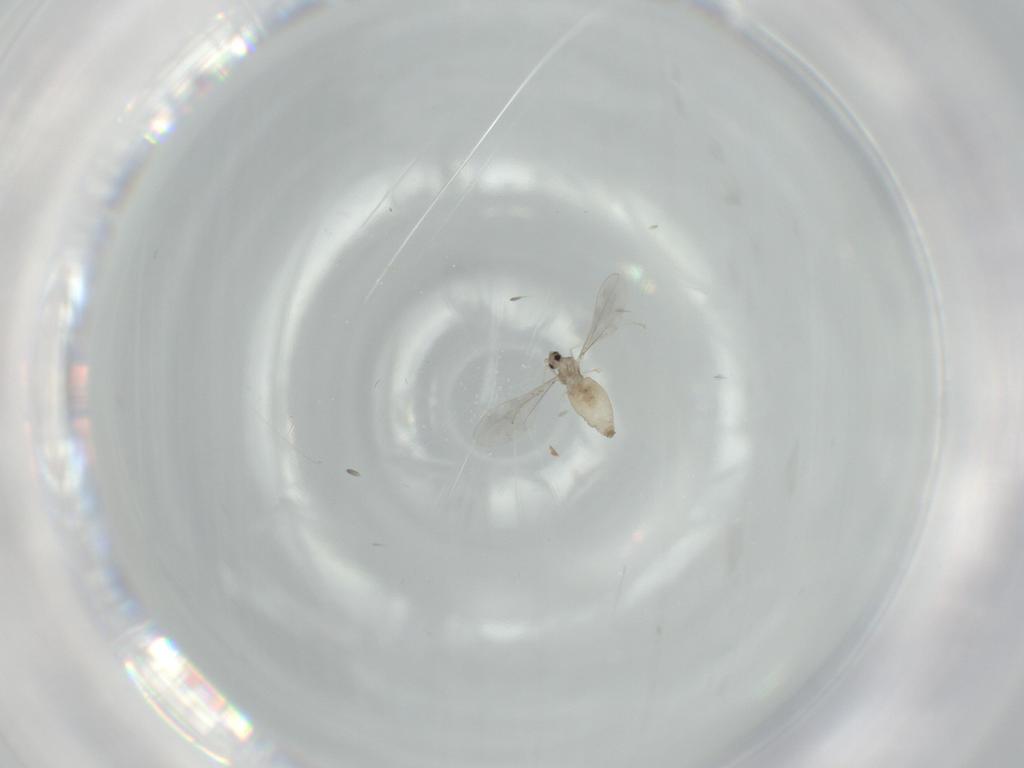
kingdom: Animalia
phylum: Arthropoda
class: Insecta
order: Diptera
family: Cecidomyiidae
